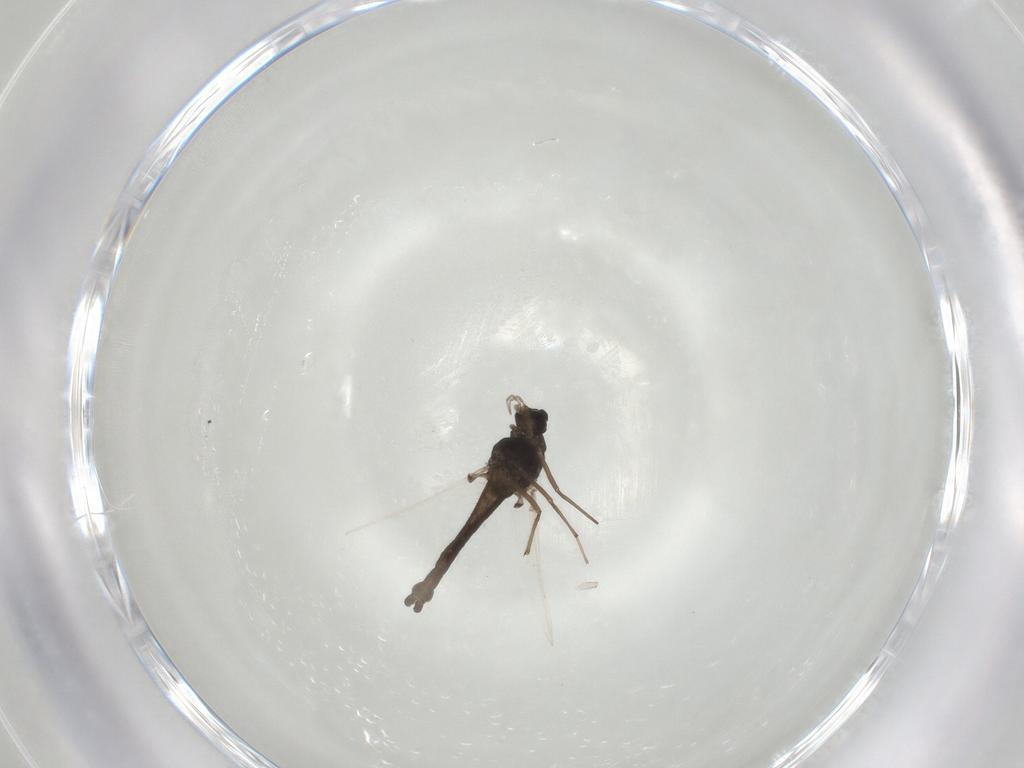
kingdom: Animalia
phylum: Arthropoda
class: Insecta
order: Diptera
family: Chironomidae
